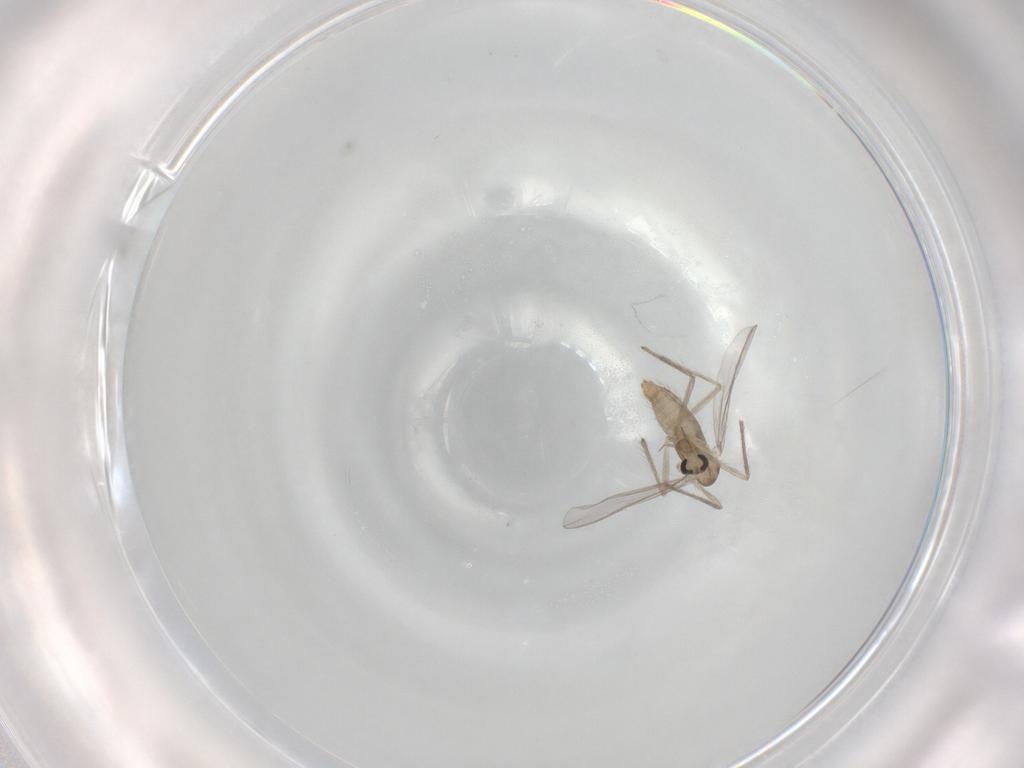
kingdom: Animalia
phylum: Arthropoda
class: Insecta
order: Diptera
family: Chironomidae
